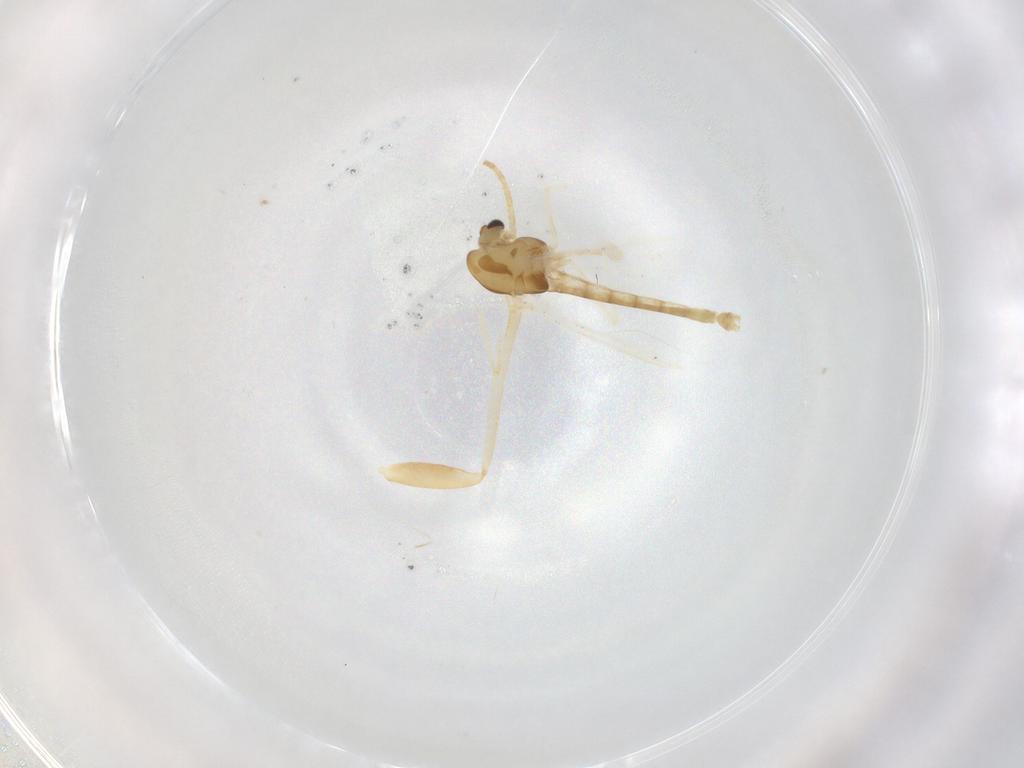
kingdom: Animalia
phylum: Arthropoda
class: Insecta
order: Diptera
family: Chironomidae
